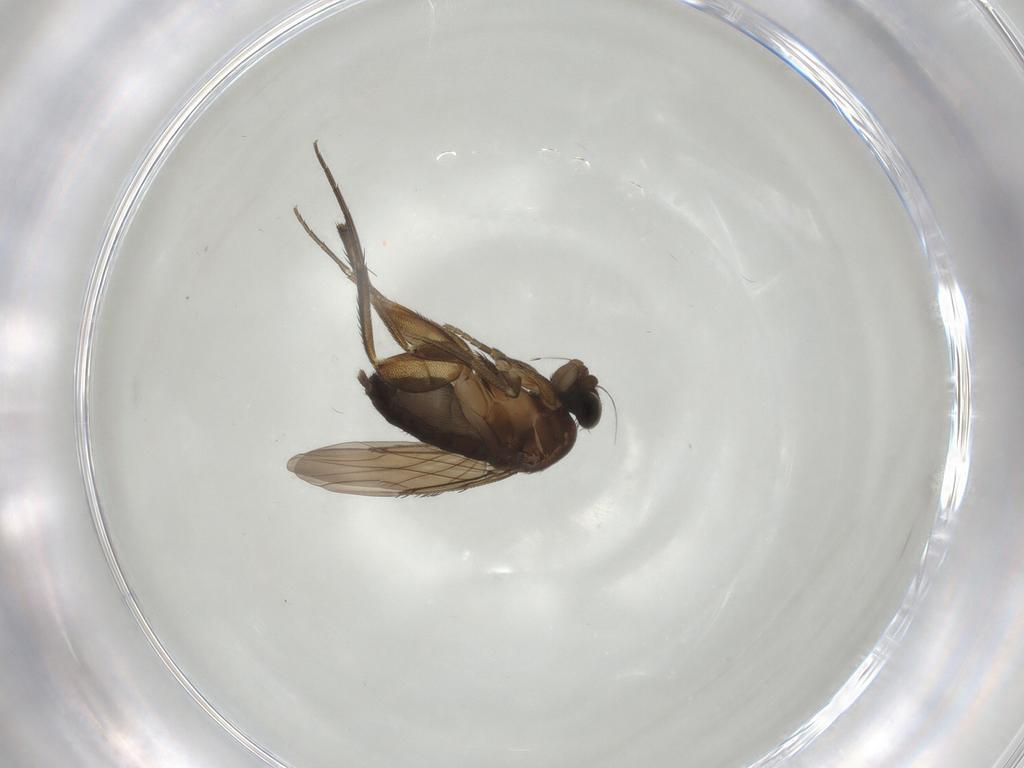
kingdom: Animalia
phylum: Arthropoda
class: Insecta
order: Diptera
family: Phoridae
